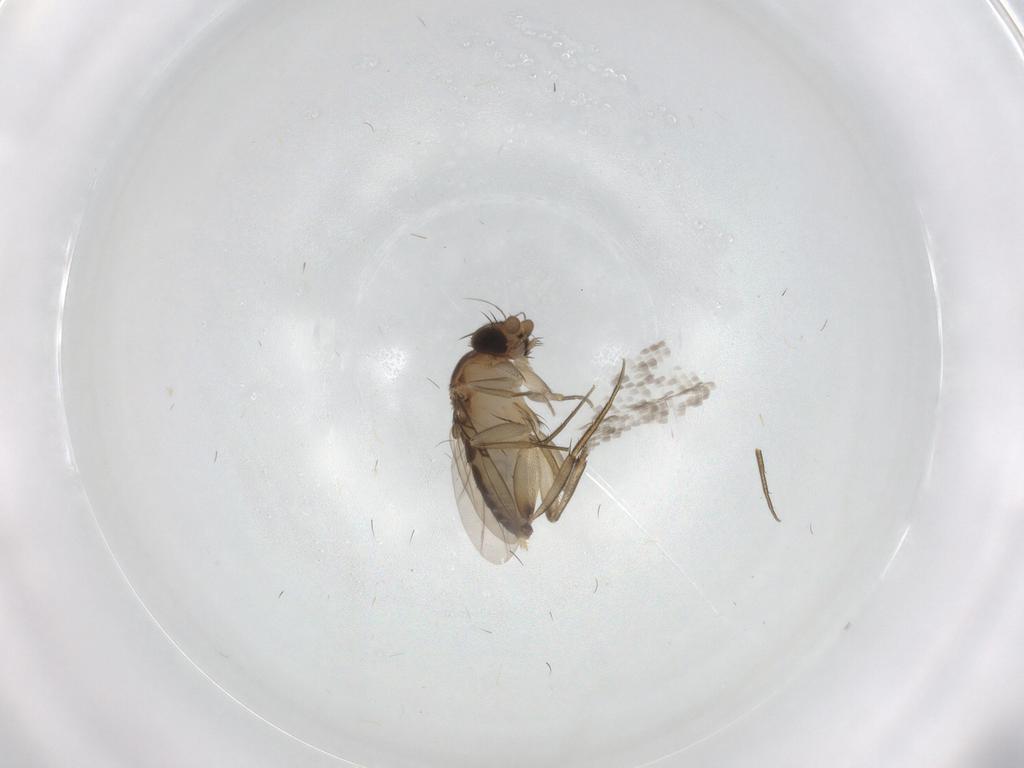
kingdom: Animalia
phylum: Arthropoda
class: Insecta
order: Diptera
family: Phoridae
